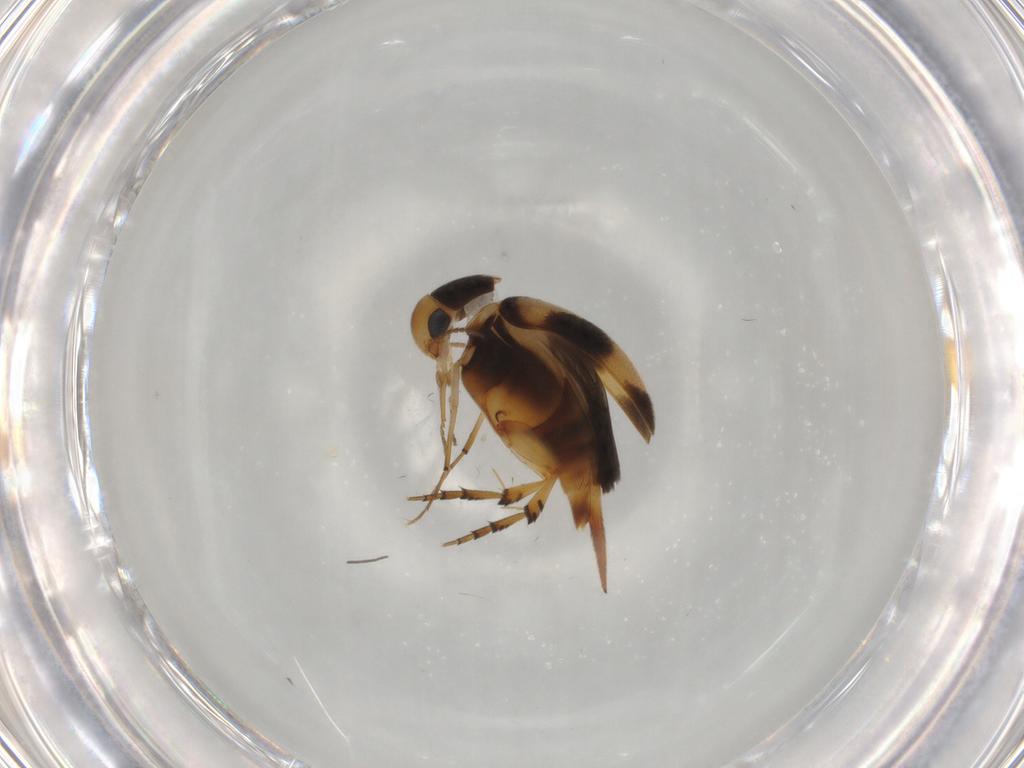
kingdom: Animalia
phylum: Arthropoda
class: Insecta
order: Coleoptera
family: Mordellidae
